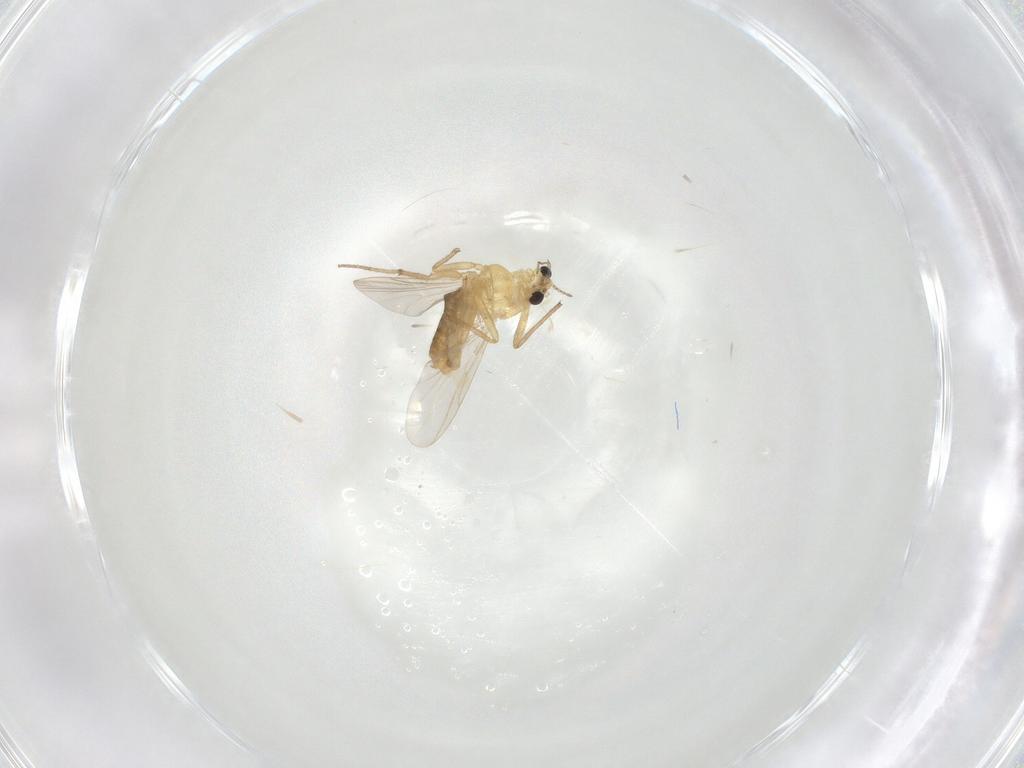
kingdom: Animalia
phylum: Arthropoda
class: Insecta
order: Diptera
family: Chironomidae
